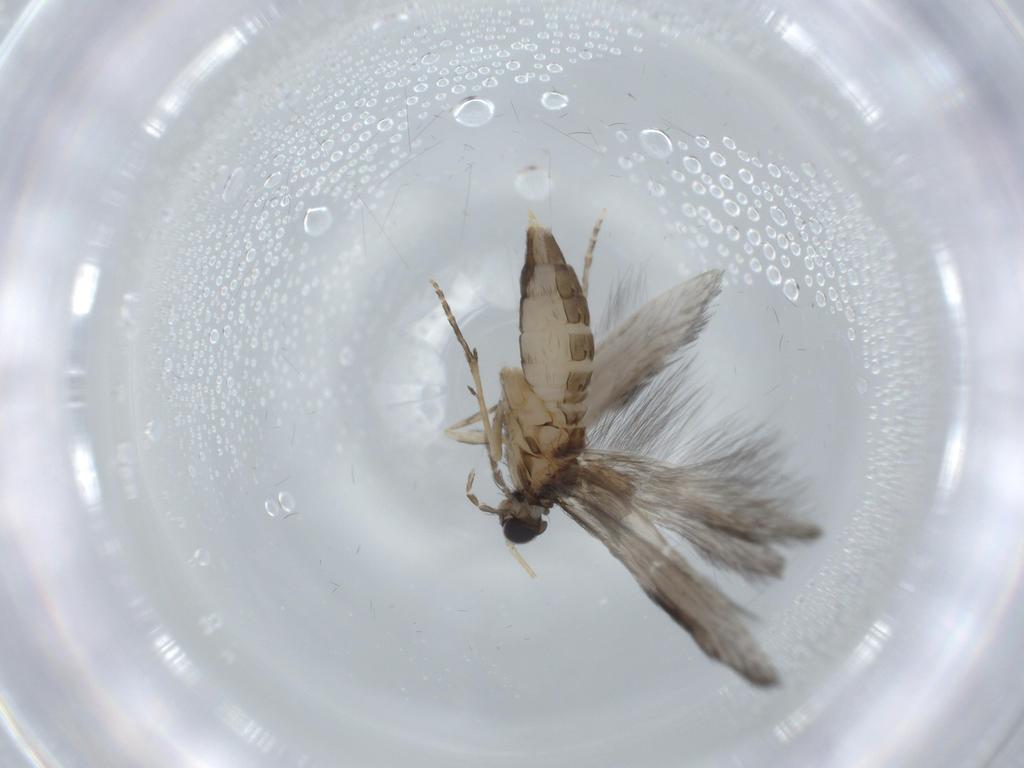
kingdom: Animalia
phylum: Arthropoda
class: Insecta
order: Trichoptera
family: Hydroptilidae
